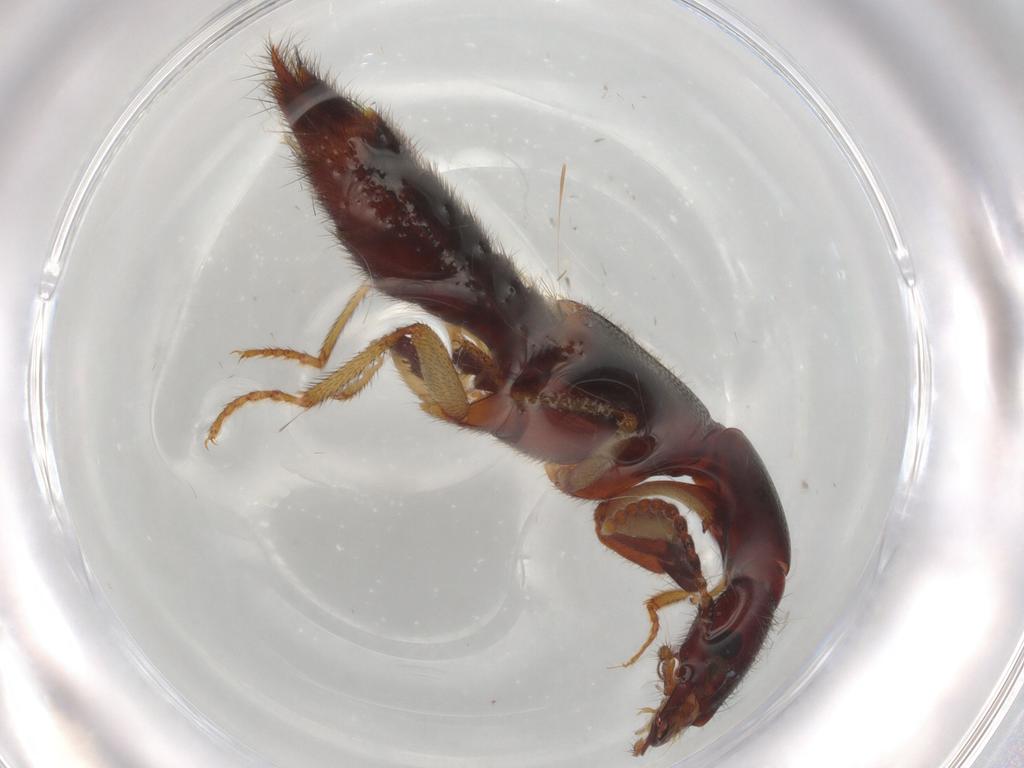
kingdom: Animalia
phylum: Arthropoda
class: Insecta
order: Coleoptera
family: Staphylinidae
